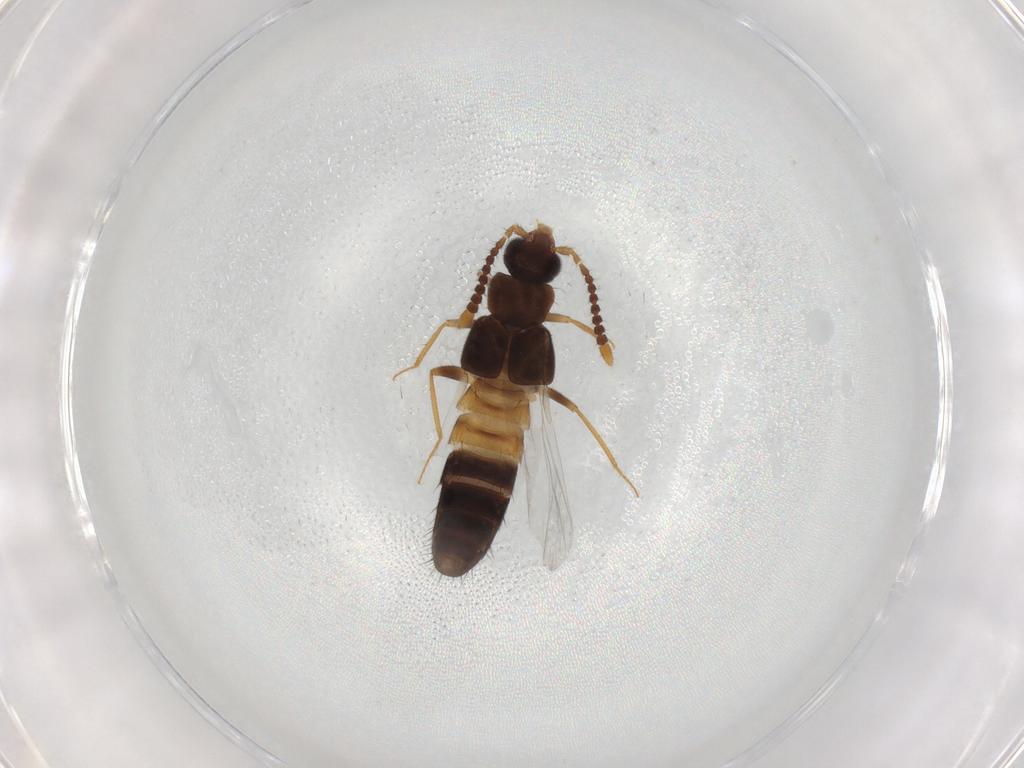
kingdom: Animalia
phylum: Arthropoda
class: Insecta
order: Coleoptera
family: Staphylinidae
